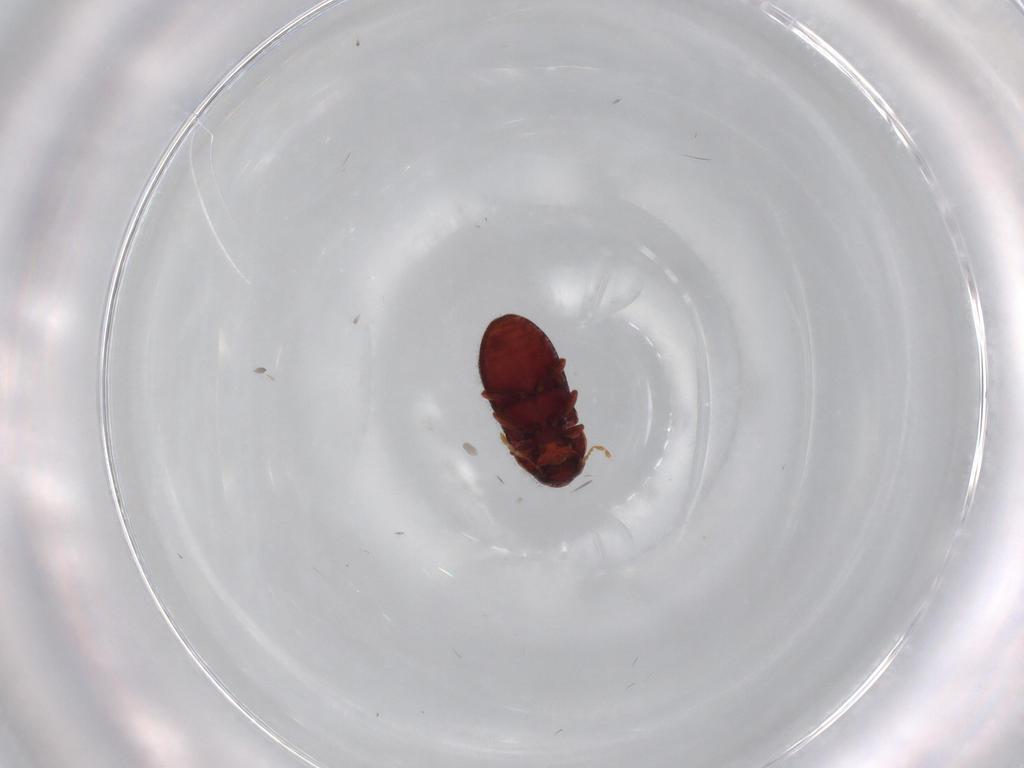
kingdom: Animalia
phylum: Arthropoda
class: Insecta
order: Coleoptera
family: Ptinidae
